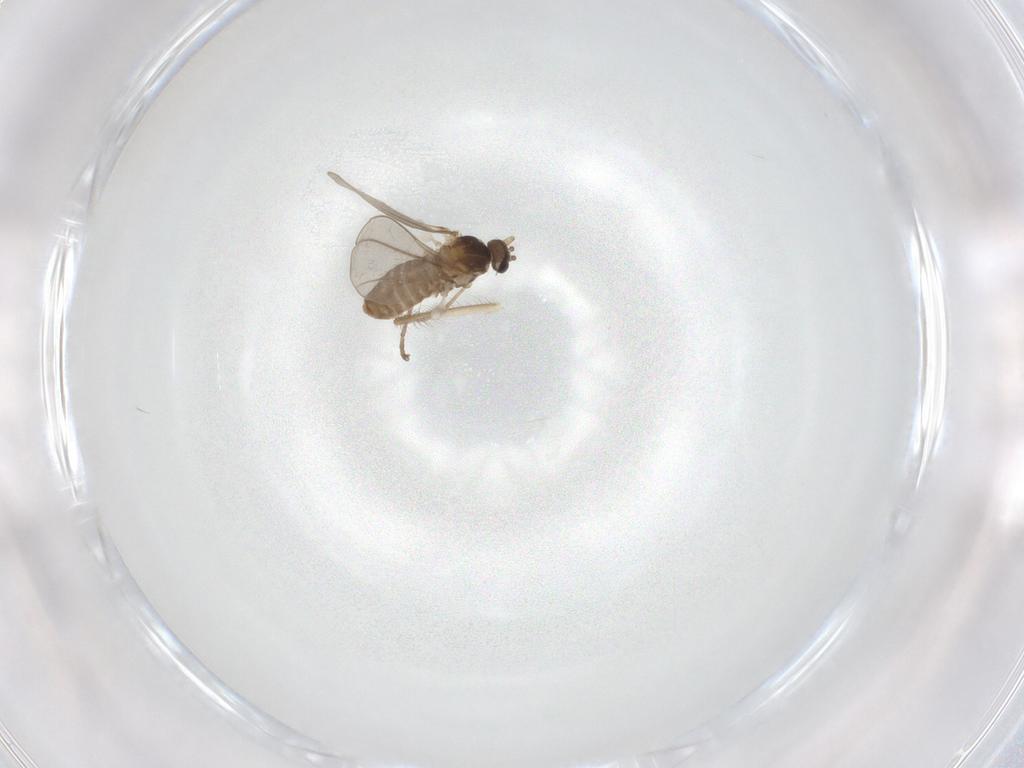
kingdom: Animalia
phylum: Arthropoda
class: Insecta
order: Diptera
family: Cecidomyiidae
